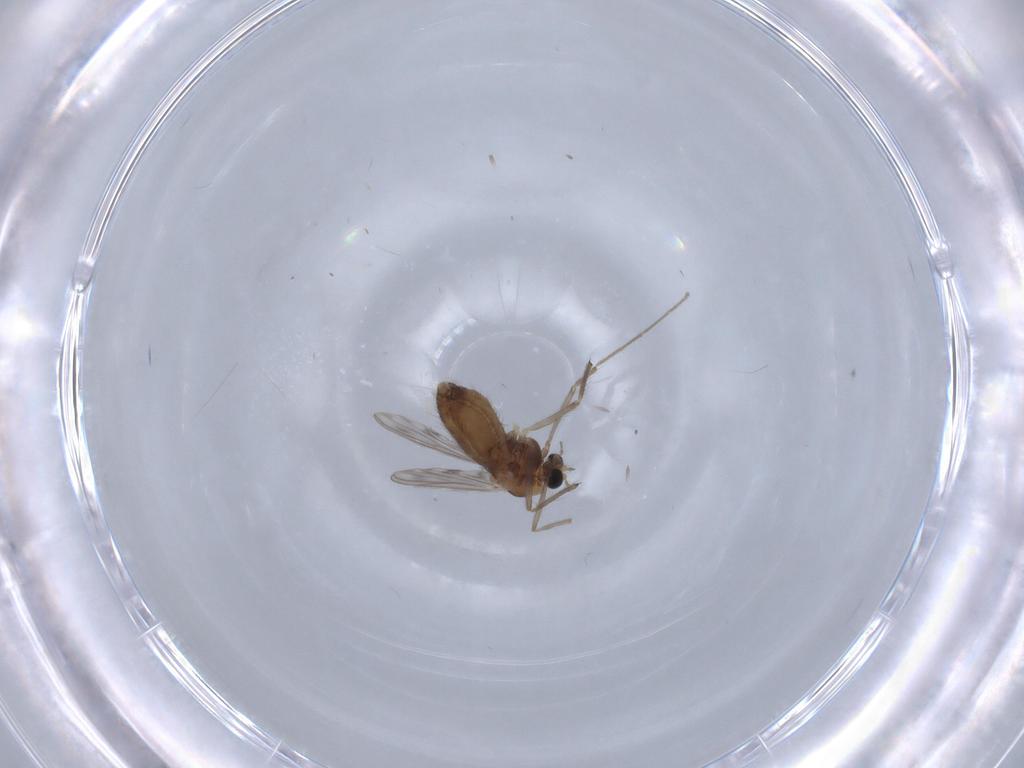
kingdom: Animalia
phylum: Arthropoda
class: Insecta
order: Diptera
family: Chironomidae
